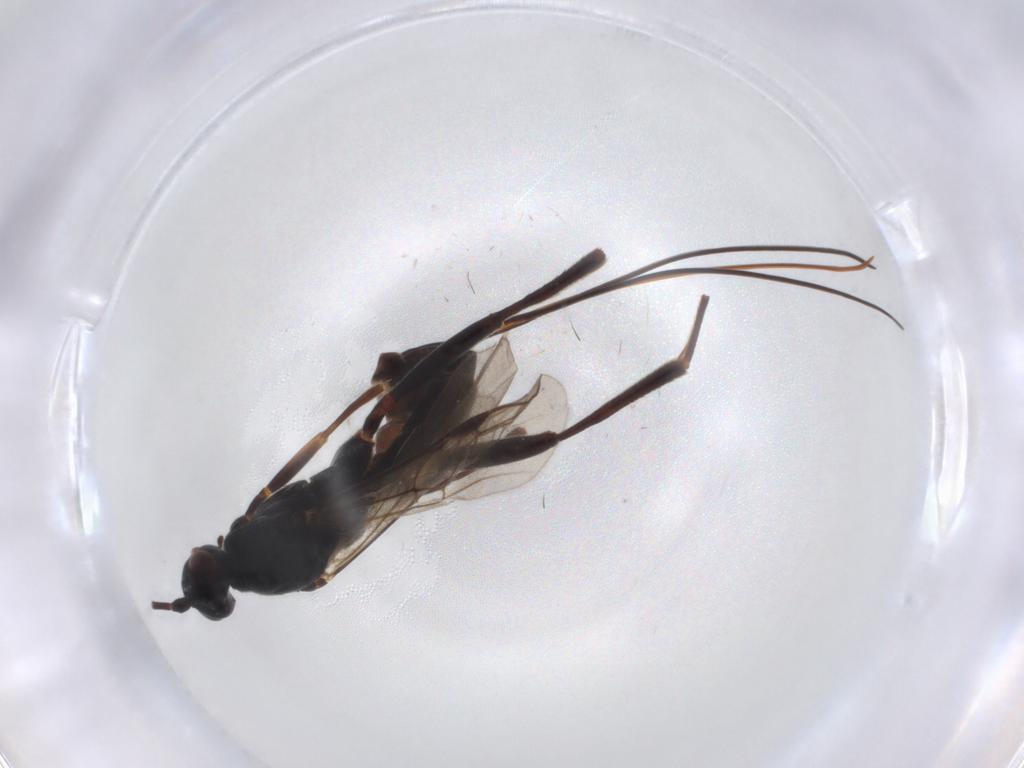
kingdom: Animalia
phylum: Arthropoda
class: Insecta
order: Hymenoptera
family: Braconidae
